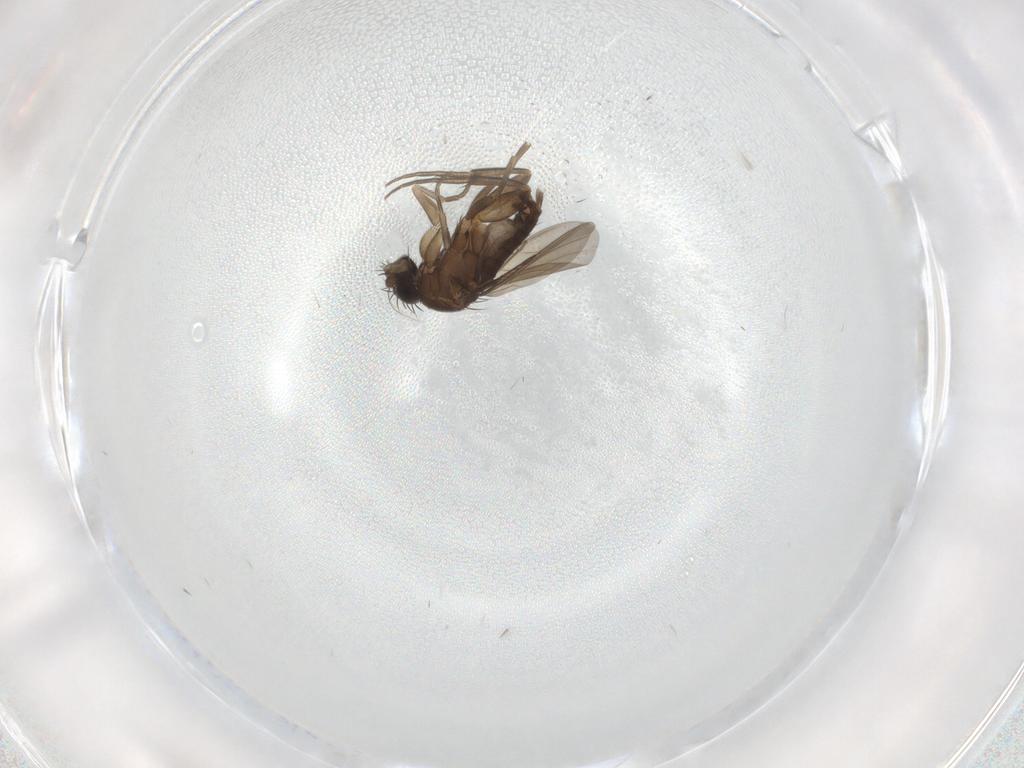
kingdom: Animalia
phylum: Arthropoda
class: Insecta
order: Diptera
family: Phoridae
